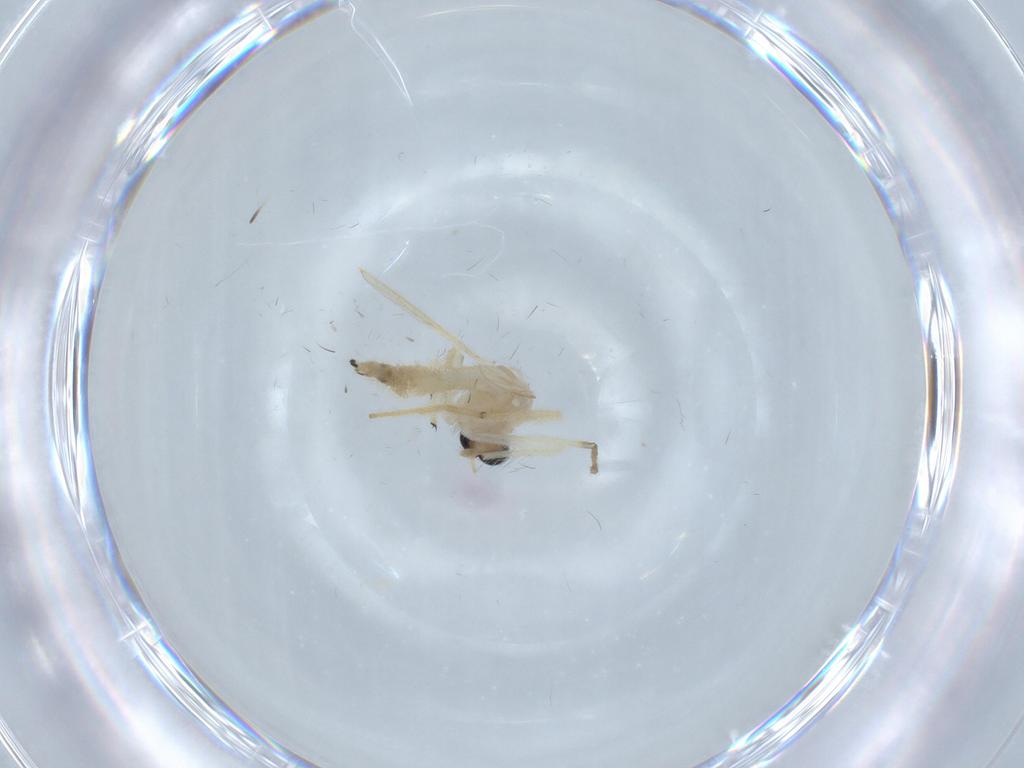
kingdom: Animalia
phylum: Arthropoda
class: Insecta
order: Diptera
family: Chironomidae
